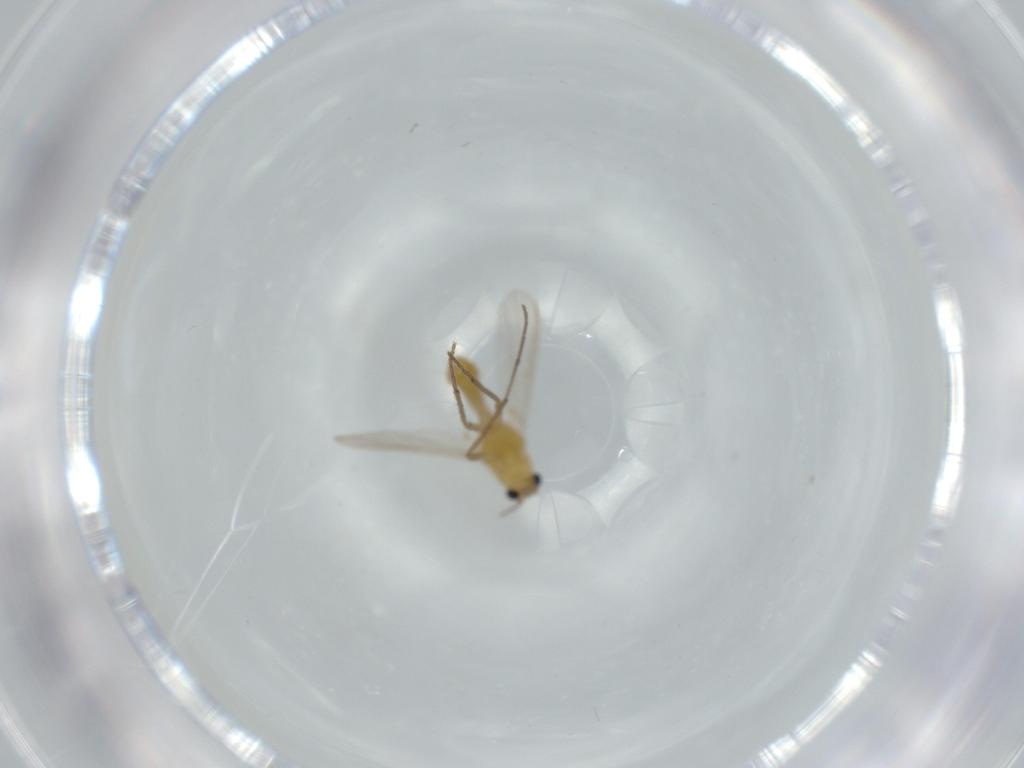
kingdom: Animalia
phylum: Arthropoda
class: Insecta
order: Diptera
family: Chironomidae
